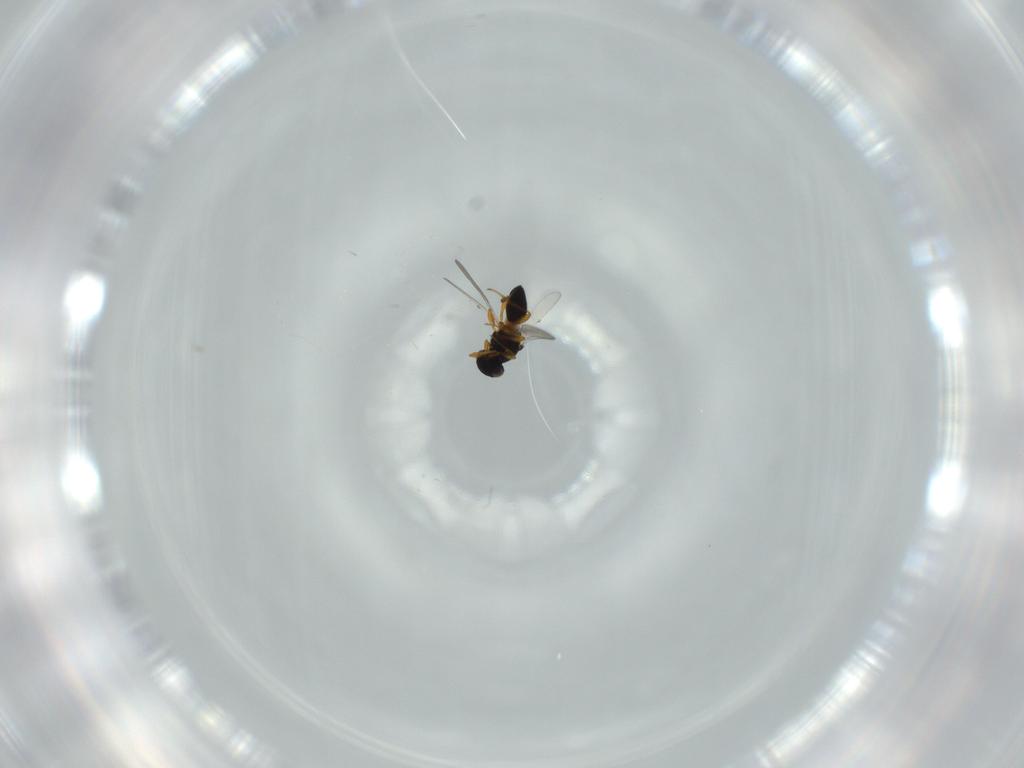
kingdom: Animalia
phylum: Arthropoda
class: Insecta
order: Hymenoptera
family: Platygastridae
